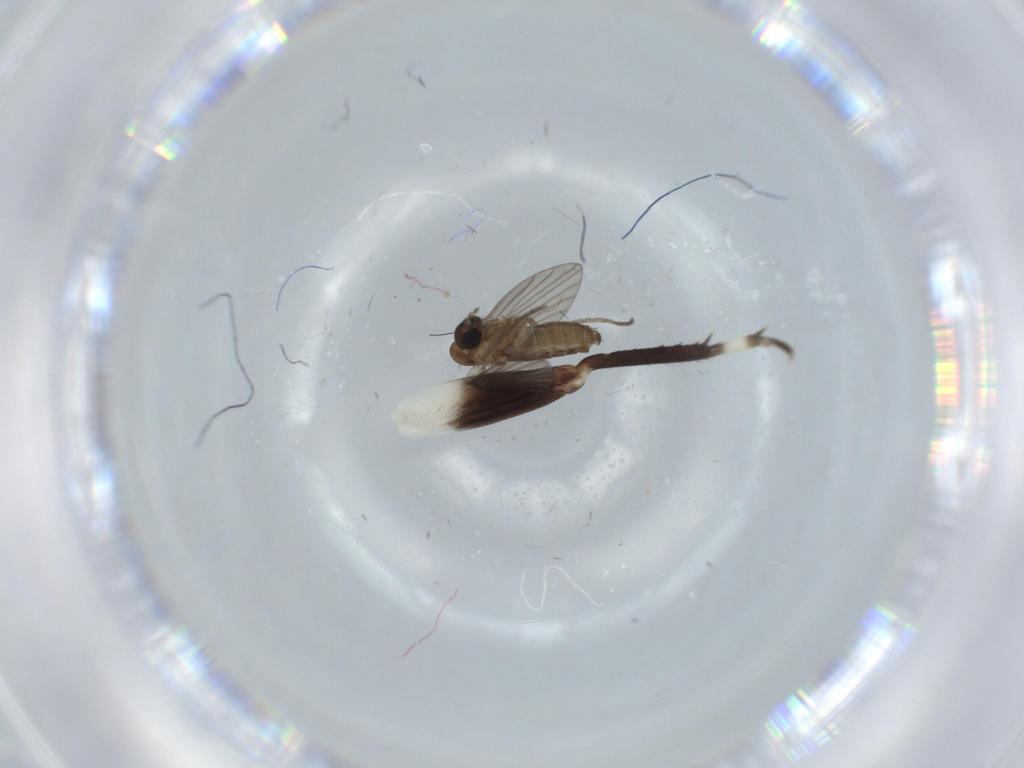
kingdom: Animalia
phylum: Arthropoda
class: Insecta
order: Diptera
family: Psychodidae
